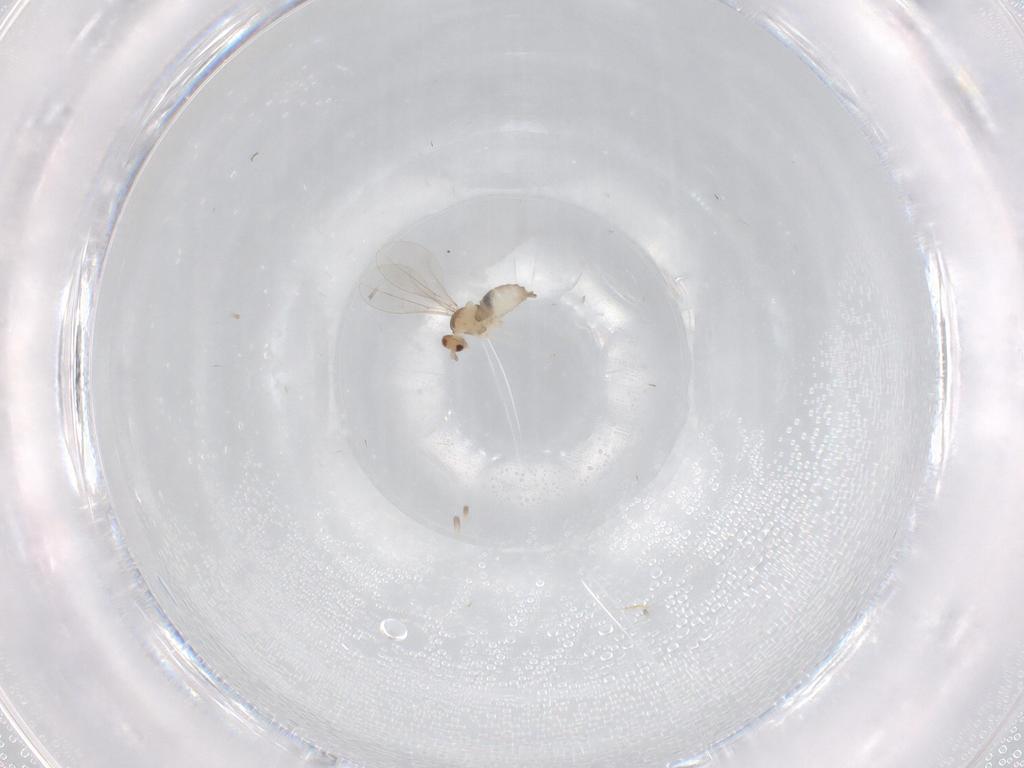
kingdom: Animalia
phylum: Arthropoda
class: Insecta
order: Diptera
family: Cecidomyiidae
